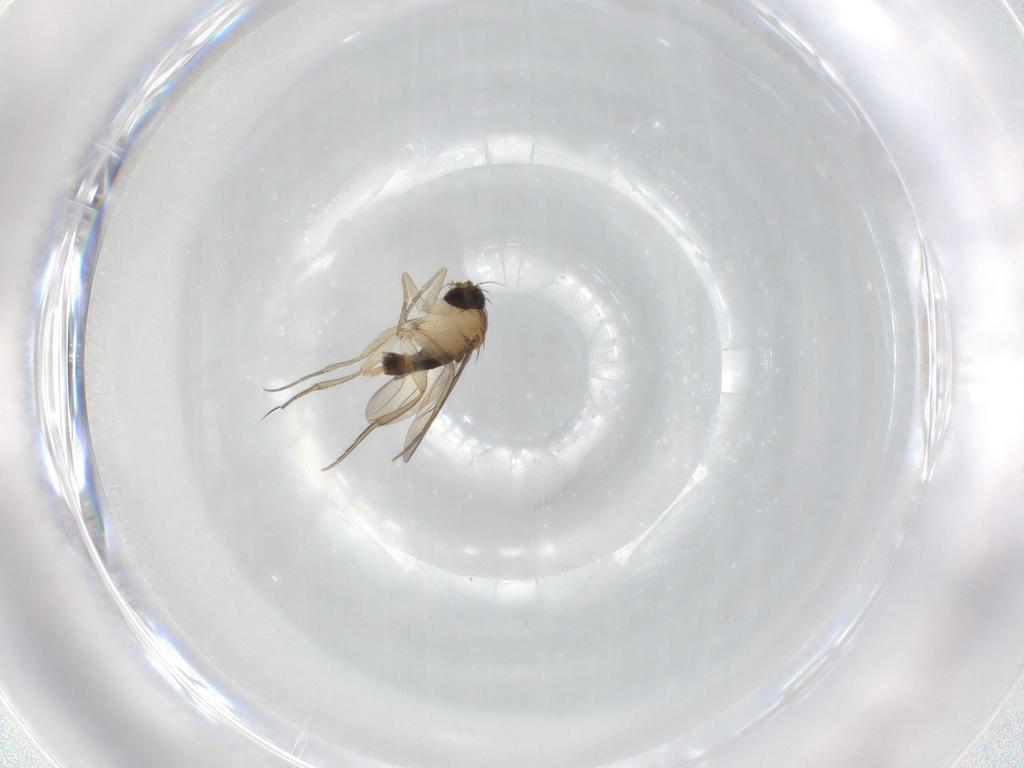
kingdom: Animalia
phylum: Arthropoda
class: Insecta
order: Diptera
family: Phoridae
